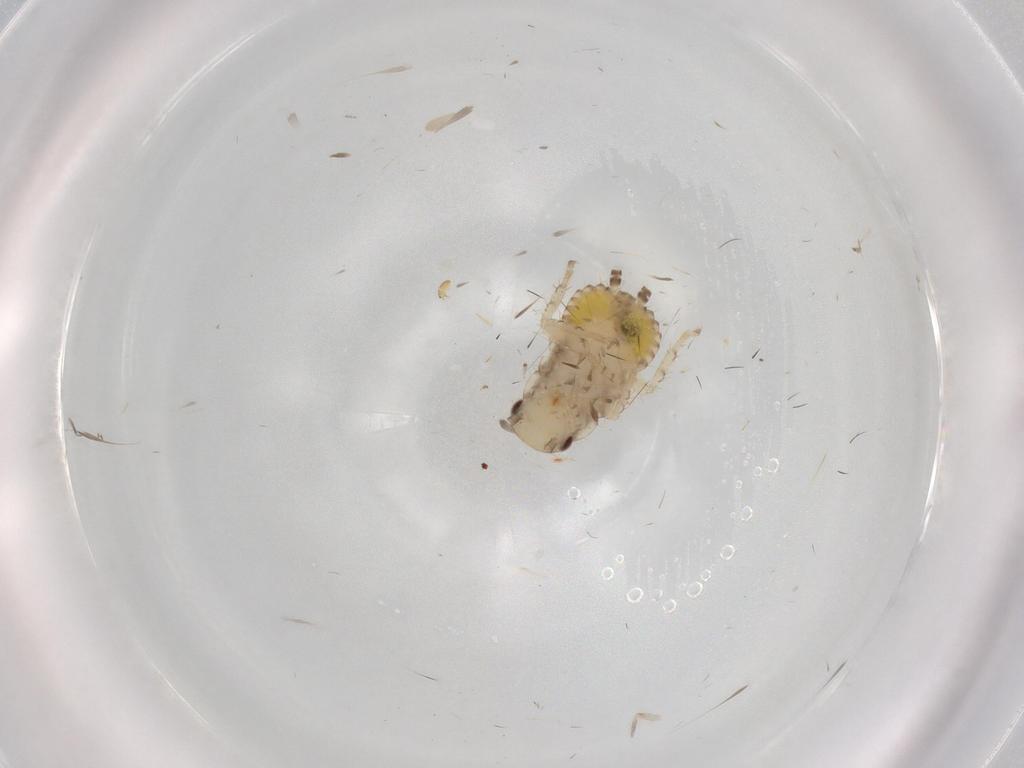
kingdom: Animalia
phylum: Arthropoda
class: Insecta
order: Blattodea
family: Ectobiidae
